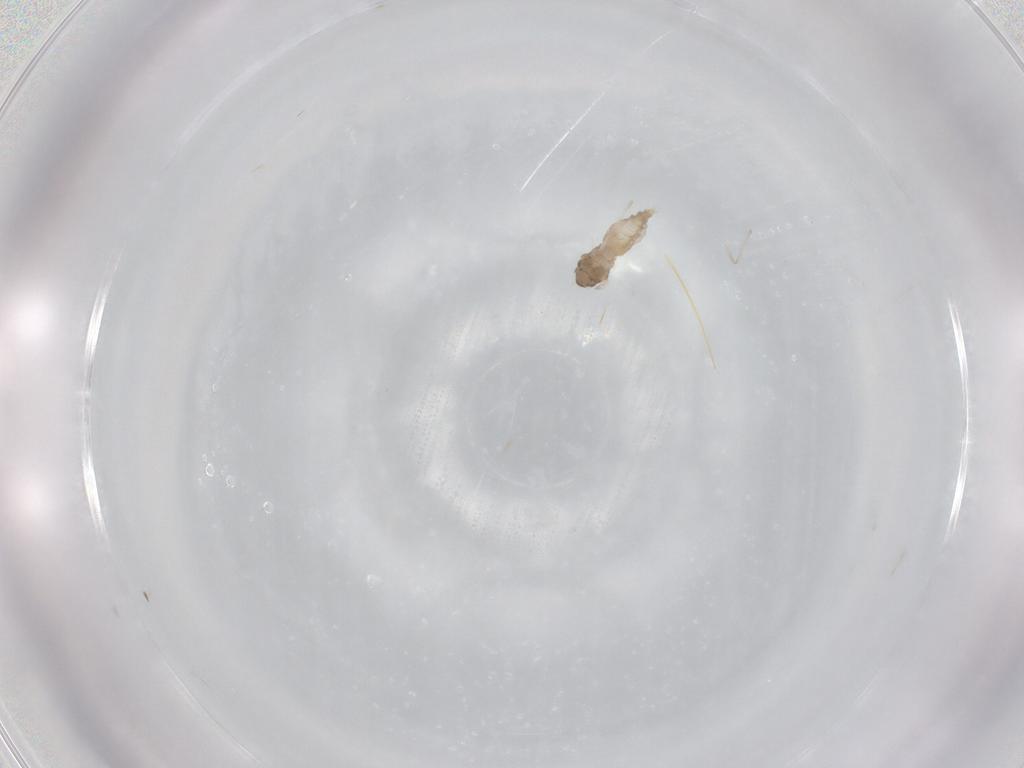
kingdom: Animalia
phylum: Arthropoda
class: Insecta
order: Diptera
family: Cecidomyiidae
